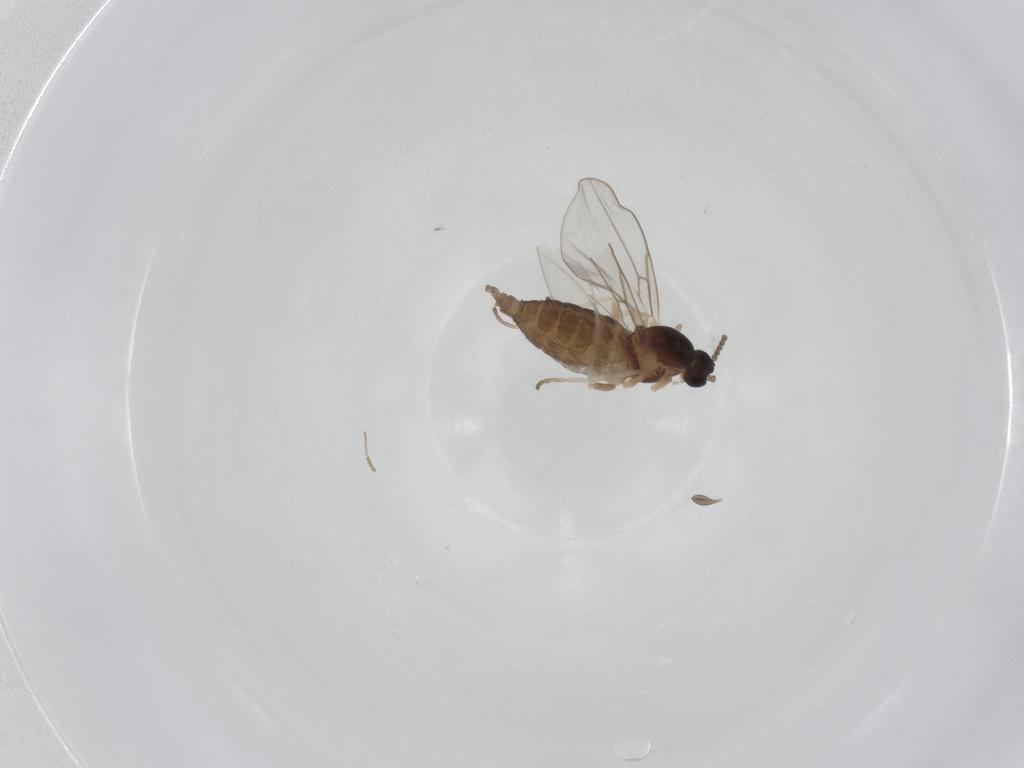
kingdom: Animalia
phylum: Arthropoda
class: Insecta
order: Diptera
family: Cecidomyiidae
